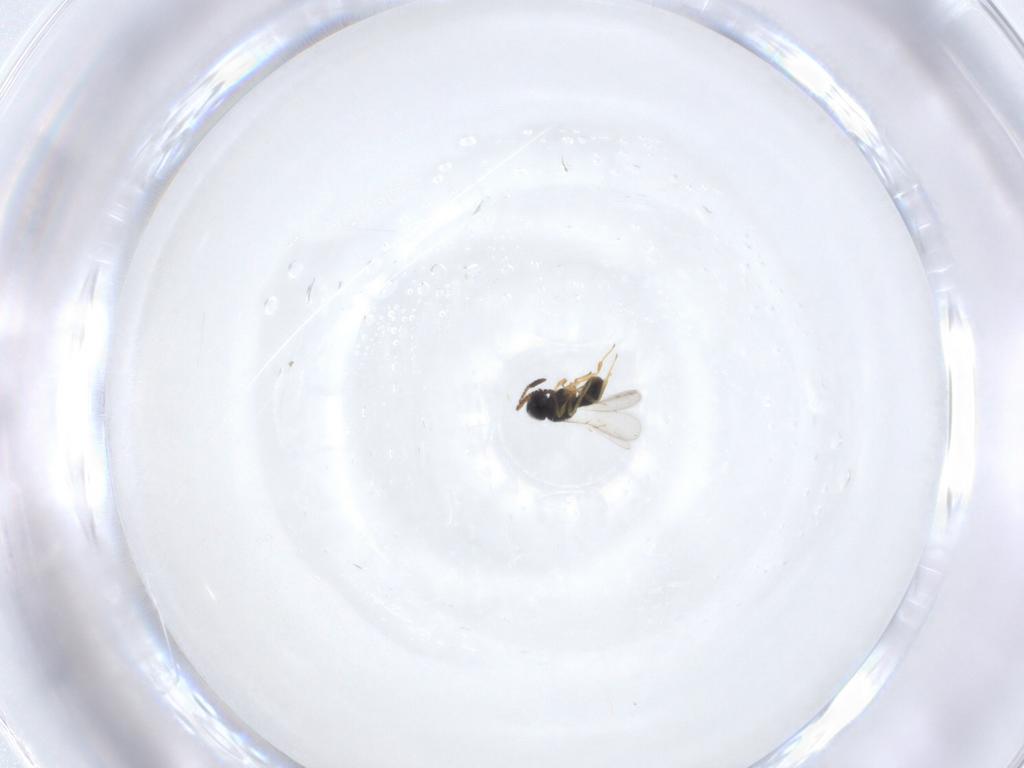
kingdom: Animalia
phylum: Arthropoda
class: Insecta
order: Hymenoptera
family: Scelionidae
